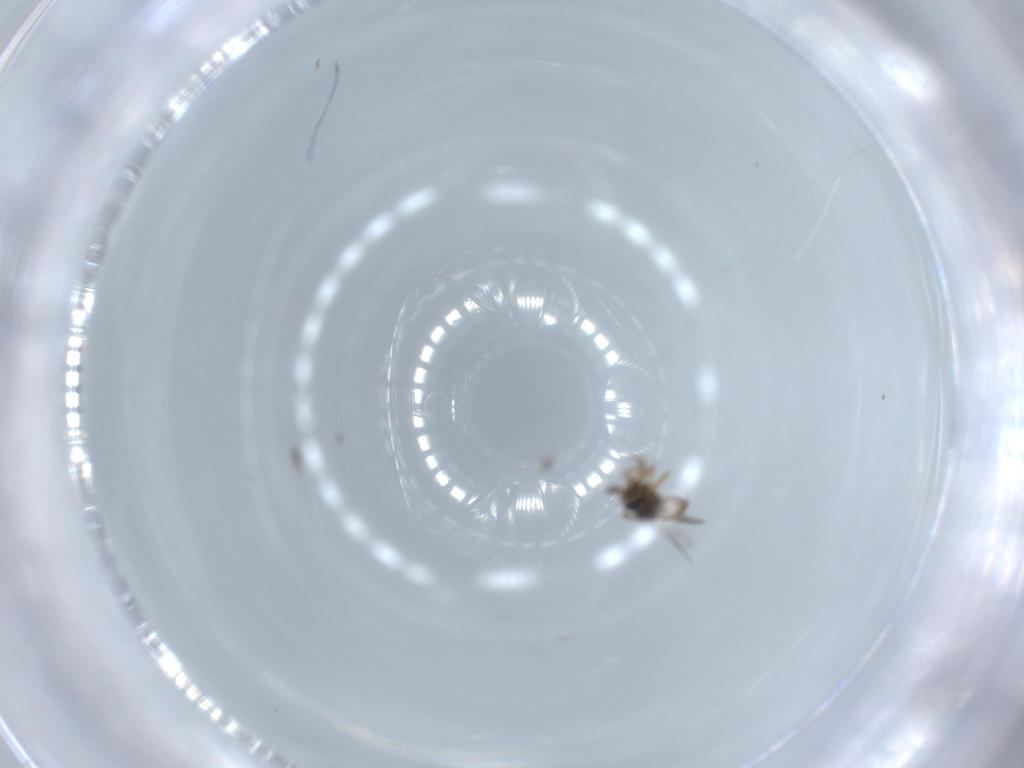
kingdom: Animalia
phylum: Arthropoda
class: Insecta
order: Hymenoptera
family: Scelionidae
